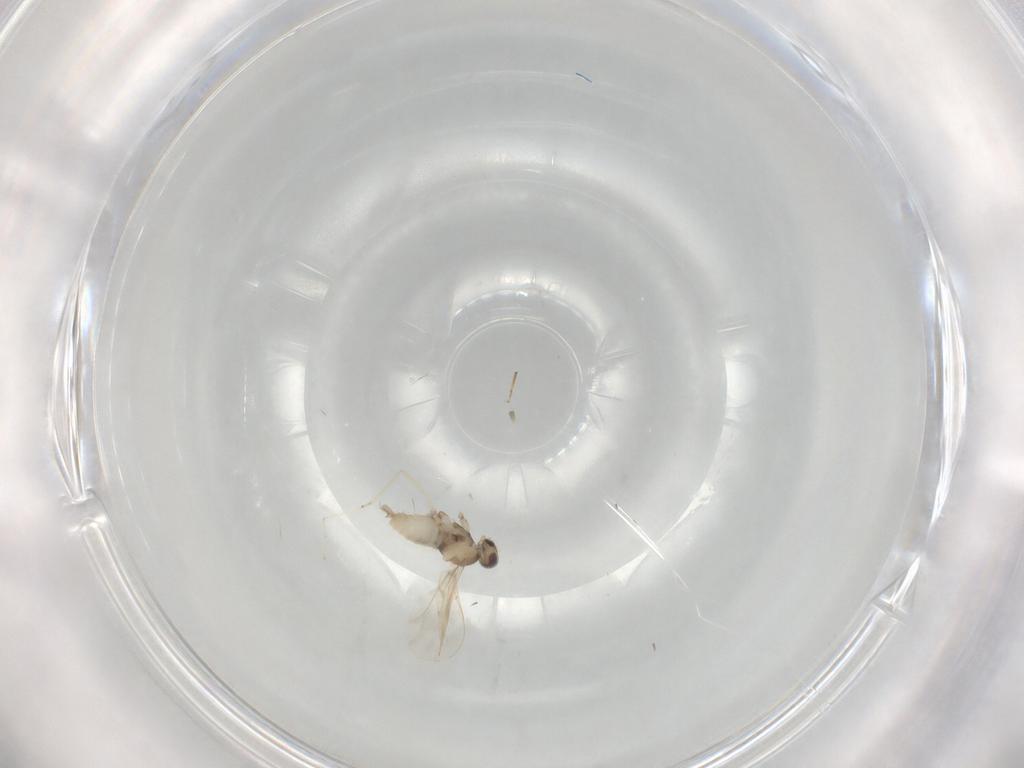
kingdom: Animalia
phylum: Arthropoda
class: Insecta
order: Diptera
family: Cecidomyiidae
